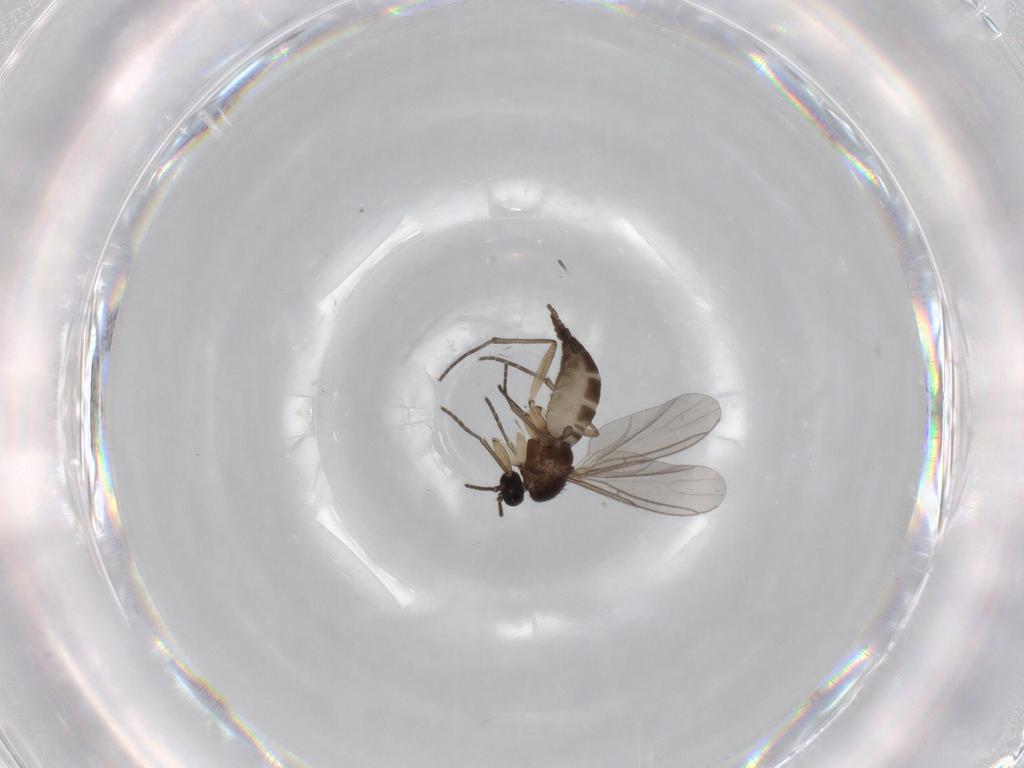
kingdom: Animalia
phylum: Arthropoda
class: Insecta
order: Diptera
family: Sciaridae
